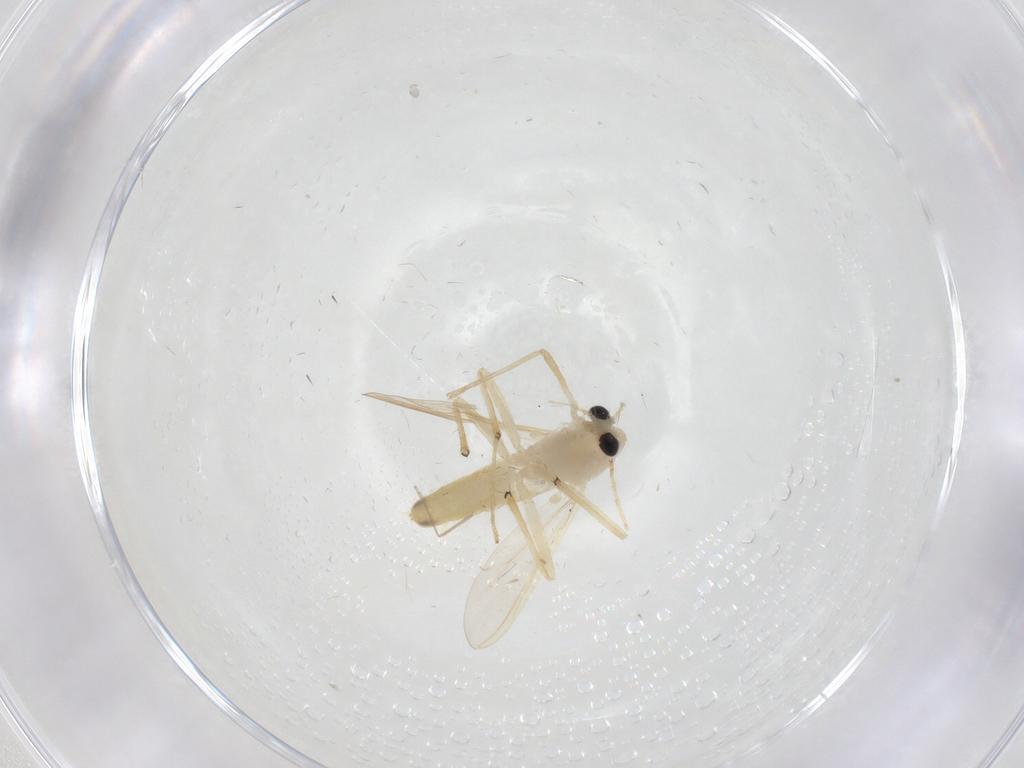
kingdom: Animalia
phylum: Arthropoda
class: Insecta
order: Diptera
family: Chironomidae
